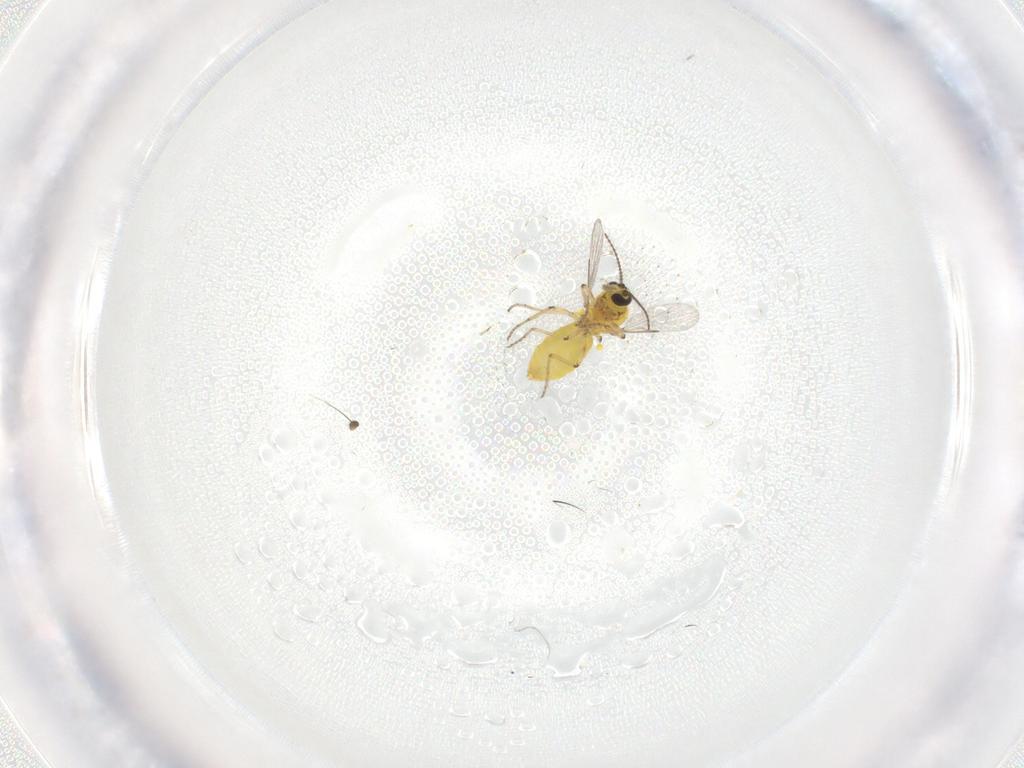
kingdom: Animalia
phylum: Arthropoda
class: Insecta
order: Diptera
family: Ceratopogonidae
